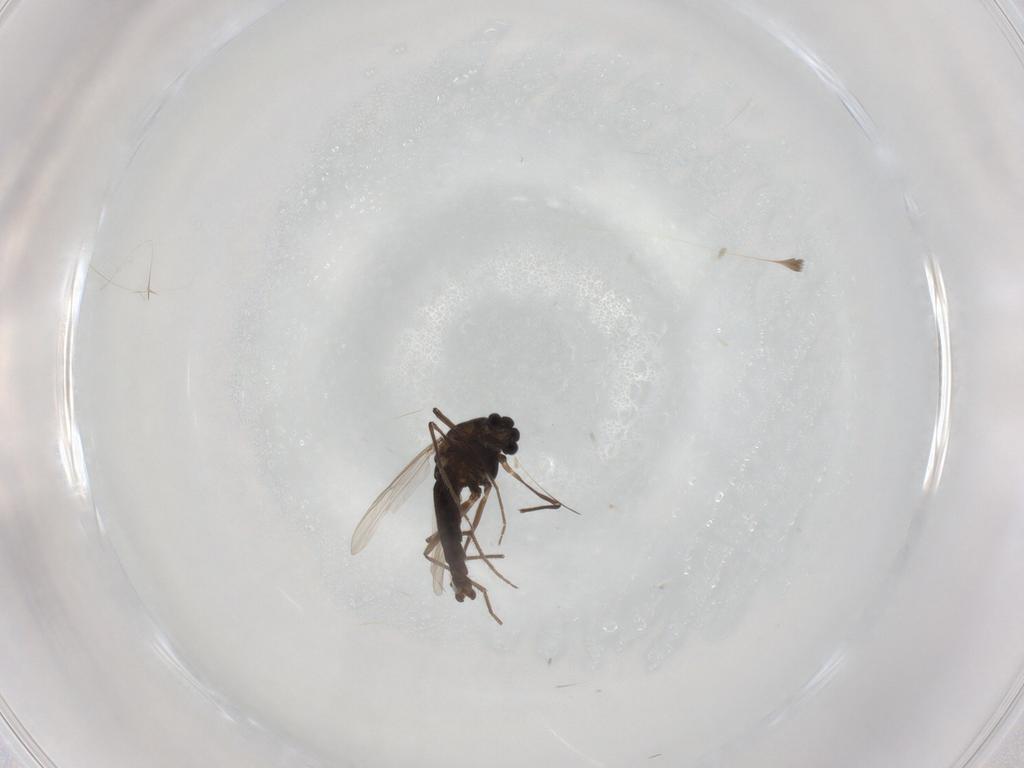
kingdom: Animalia
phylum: Arthropoda
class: Insecta
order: Diptera
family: Chironomidae
